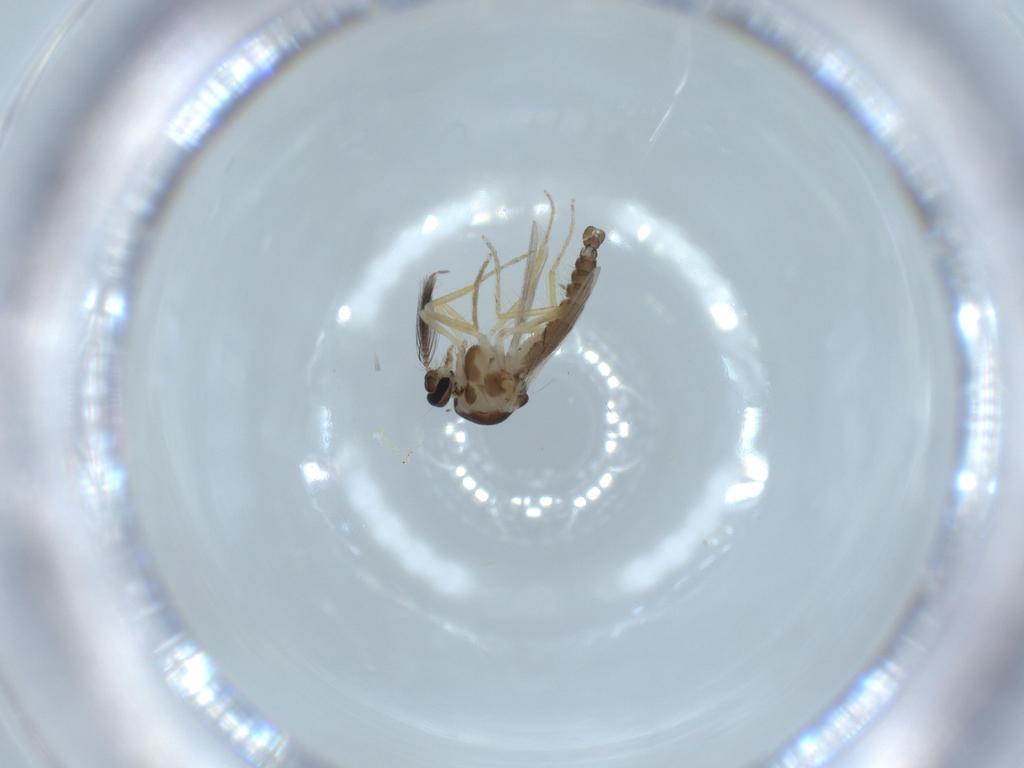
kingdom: Animalia
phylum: Arthropoda
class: Insecta
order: Diptera
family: Ceratopogonidae
